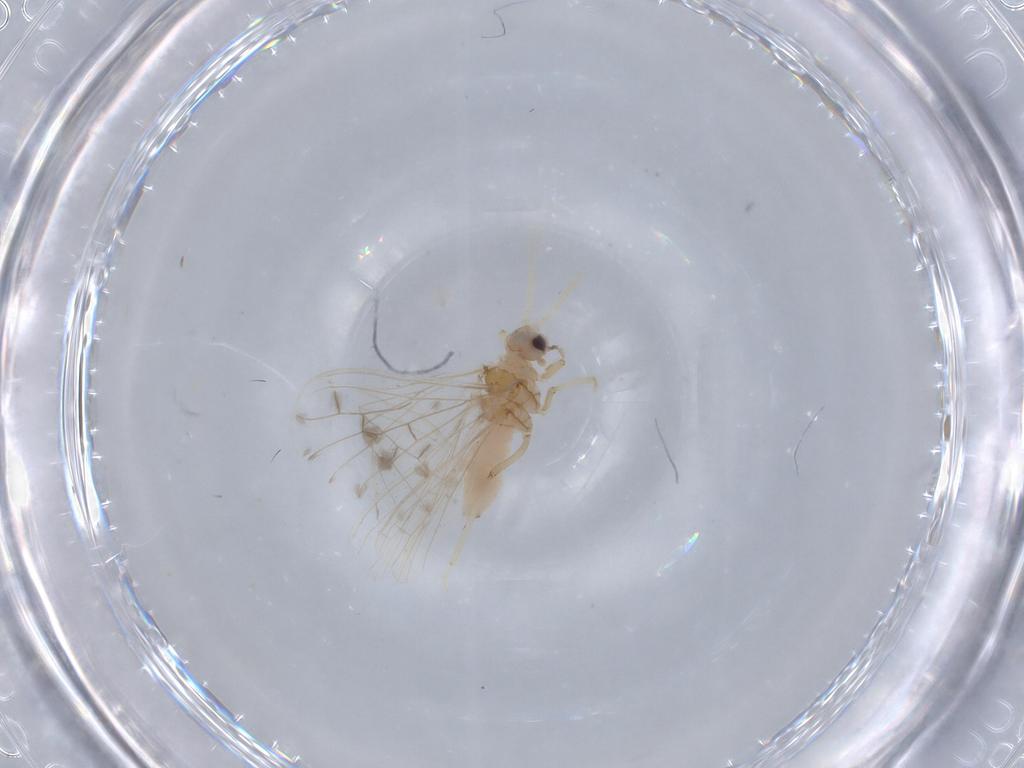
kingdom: Animalia
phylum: Arthropoda
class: Insecta
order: Neuroptera
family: Coniopterygidae
